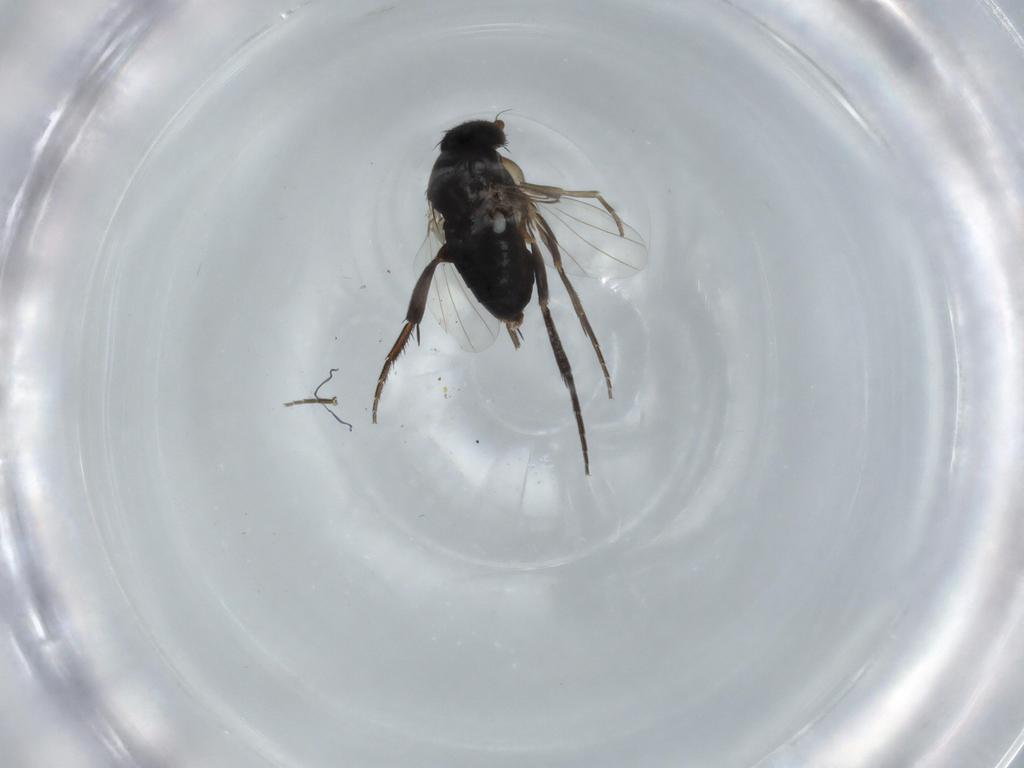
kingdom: Animalia
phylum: Arthropoda
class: Insecta
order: Diptera
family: Phoridae
